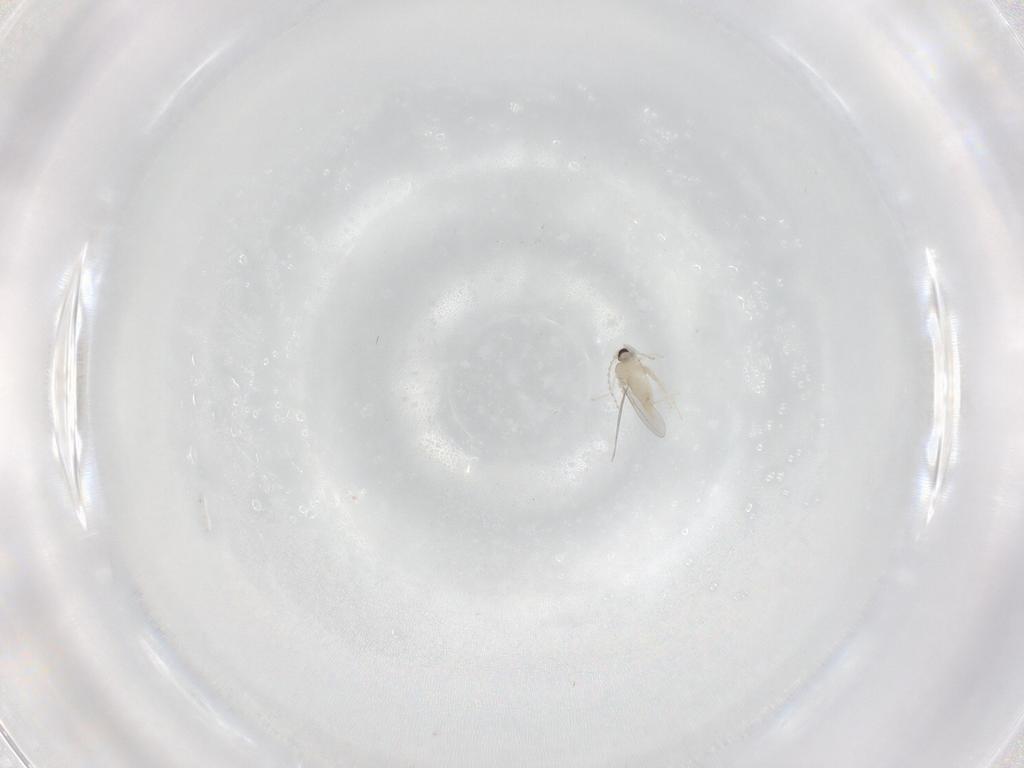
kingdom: Animalia
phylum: Arthropoda
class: Insecta
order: Diptera
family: Cecidomyiidae
